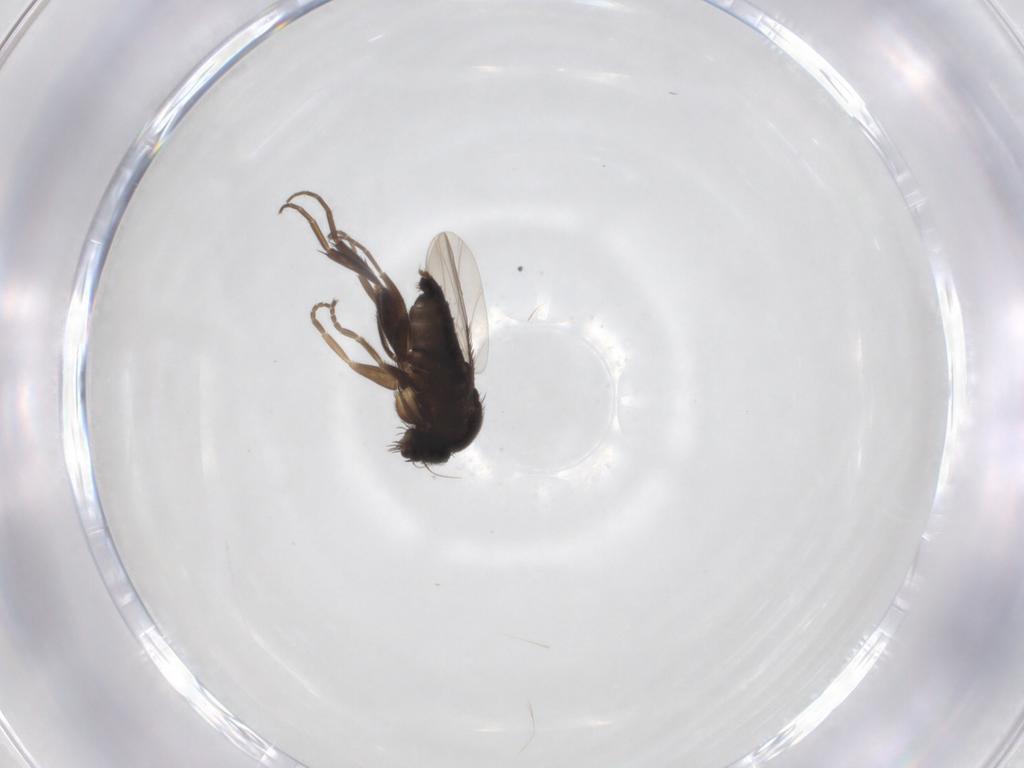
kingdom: Animalia
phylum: Arthropoda
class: Insecta
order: Diptera
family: Phoridae
